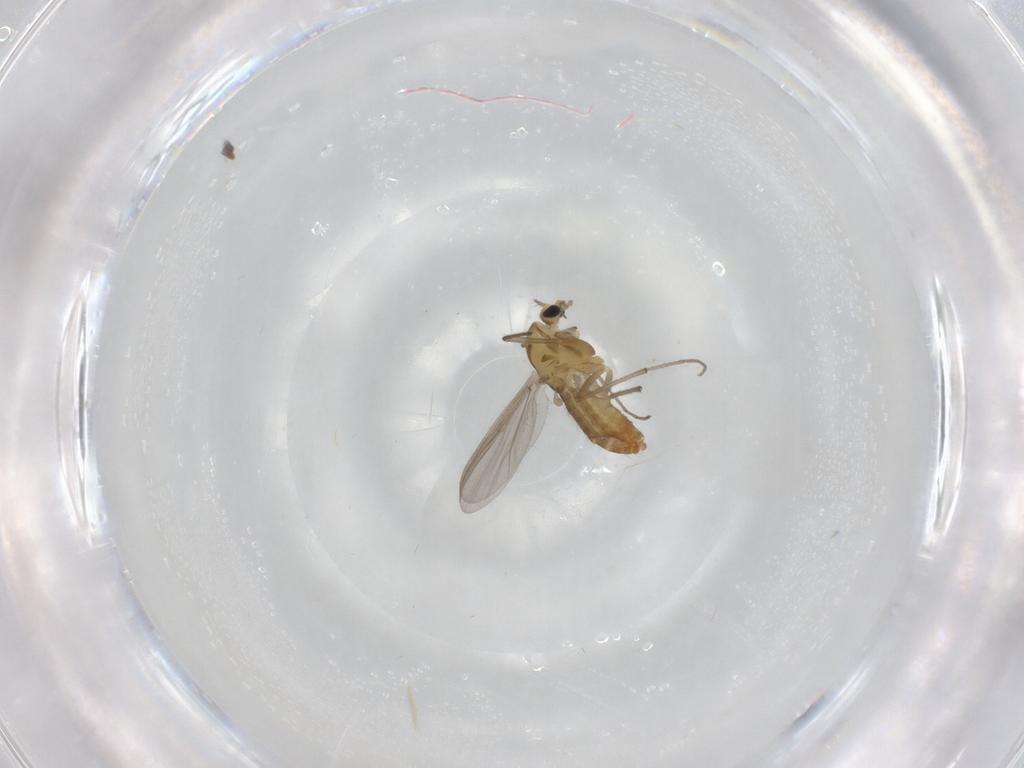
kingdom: Animalia
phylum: Arthropoda
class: Insecta
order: Diptera
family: Chironomidae
